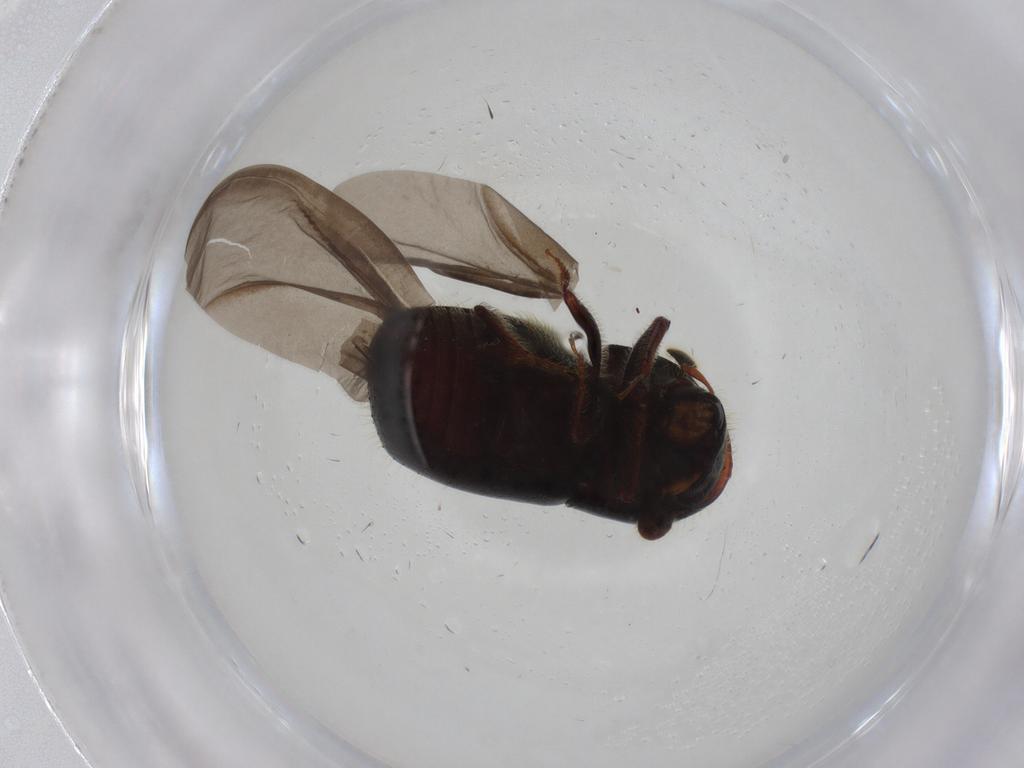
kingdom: Animalia
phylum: Arthropoda
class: Insecta
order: Coleoptera
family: Curculionidae
